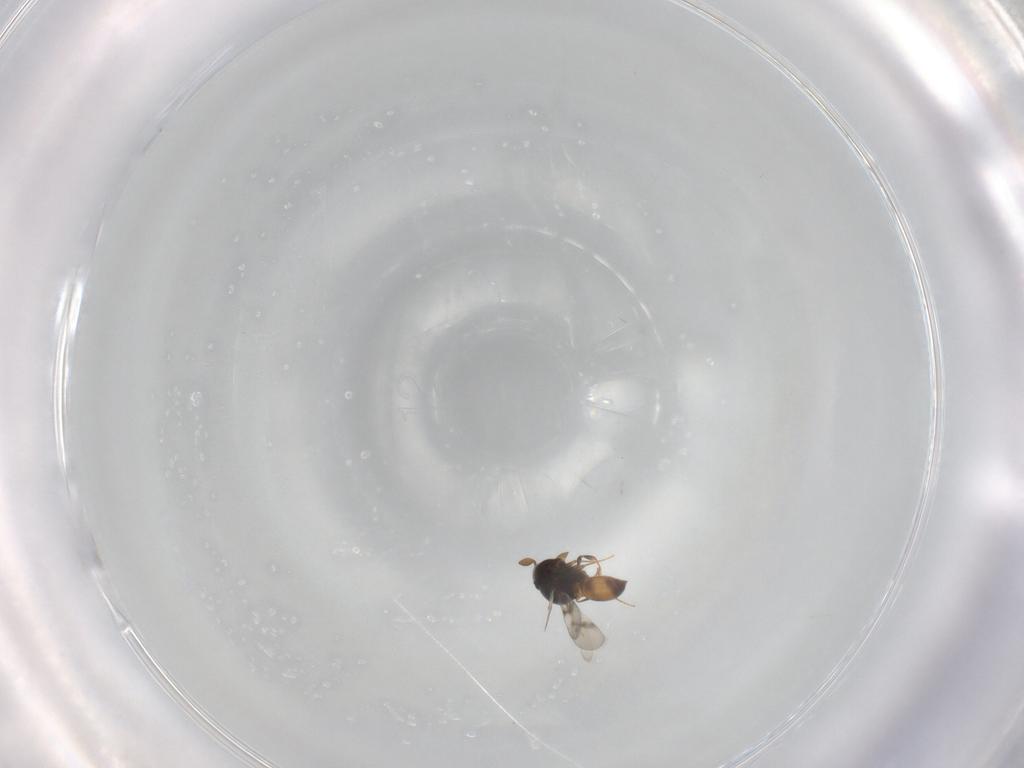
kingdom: Animalia
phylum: Arthropoda
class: Insecta
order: Hymenoptera
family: Scelionidae
